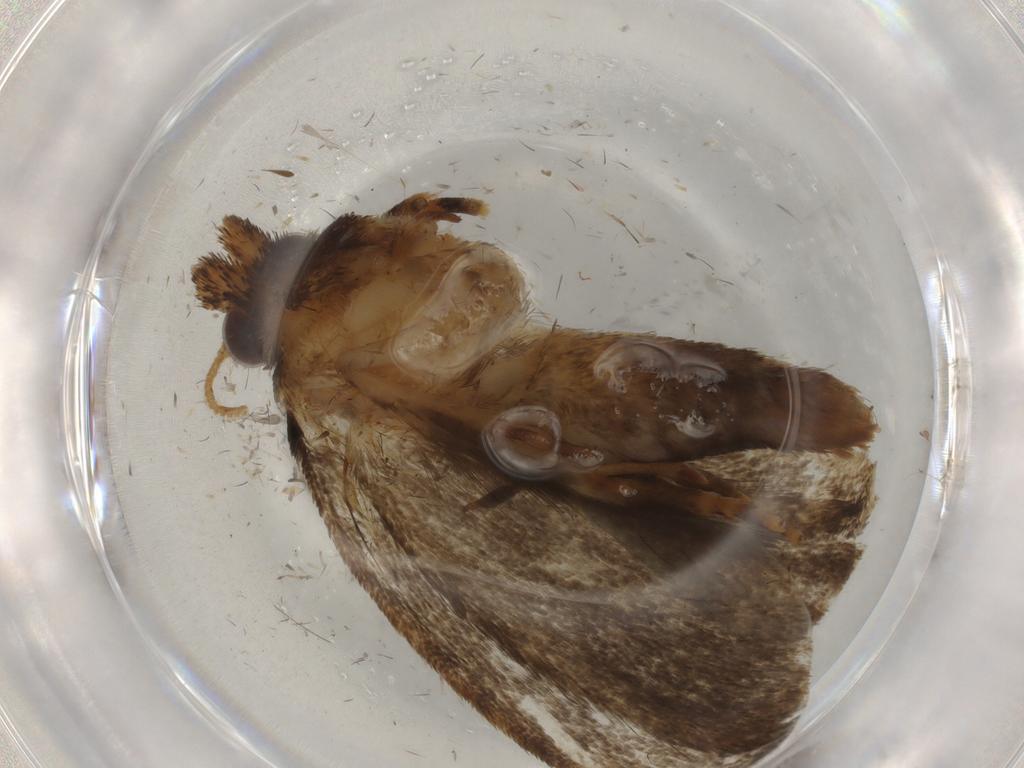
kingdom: Animalia
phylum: Arthropoda
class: Insecta
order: Lepidoptera
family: Tineidae
